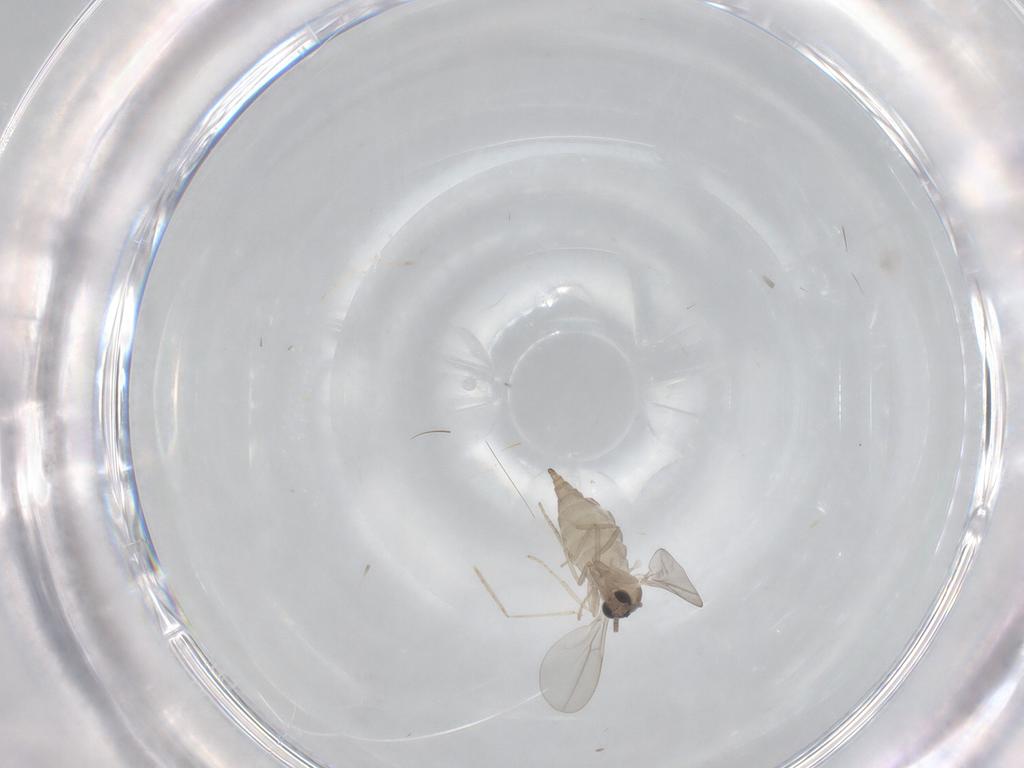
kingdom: Animalia
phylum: Arthropoda
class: Insecta
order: Diptera
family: Cecidomyiidae
